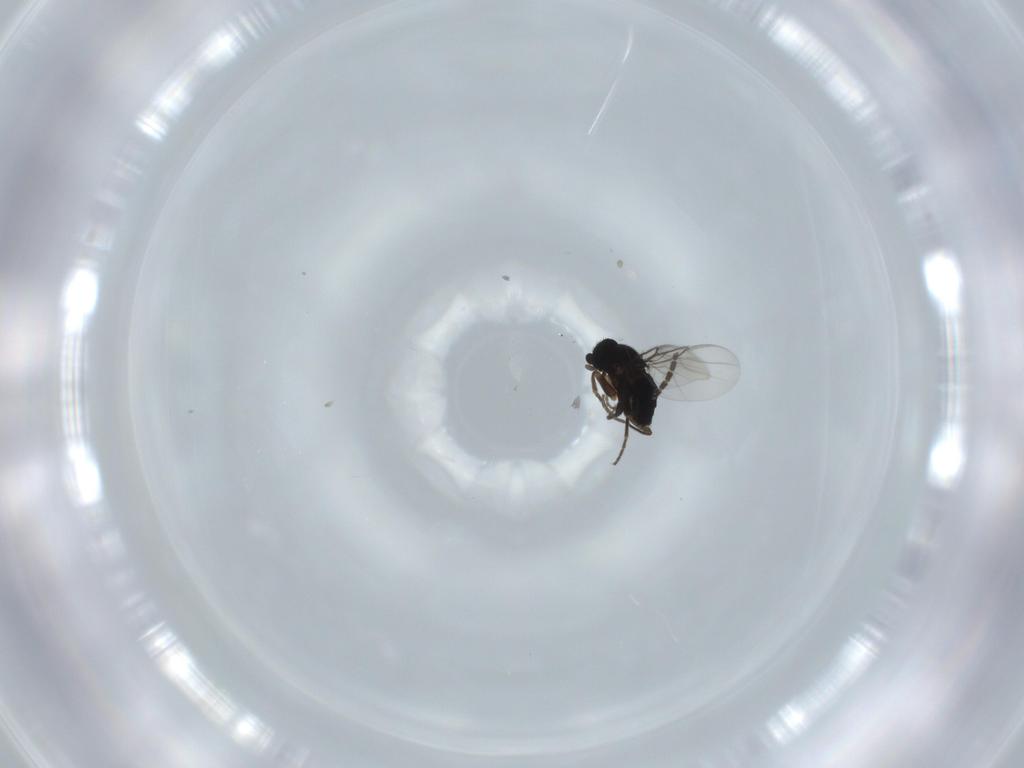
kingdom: Animalia
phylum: Arthropoda
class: Insecta
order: Diptera
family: Phoridae
